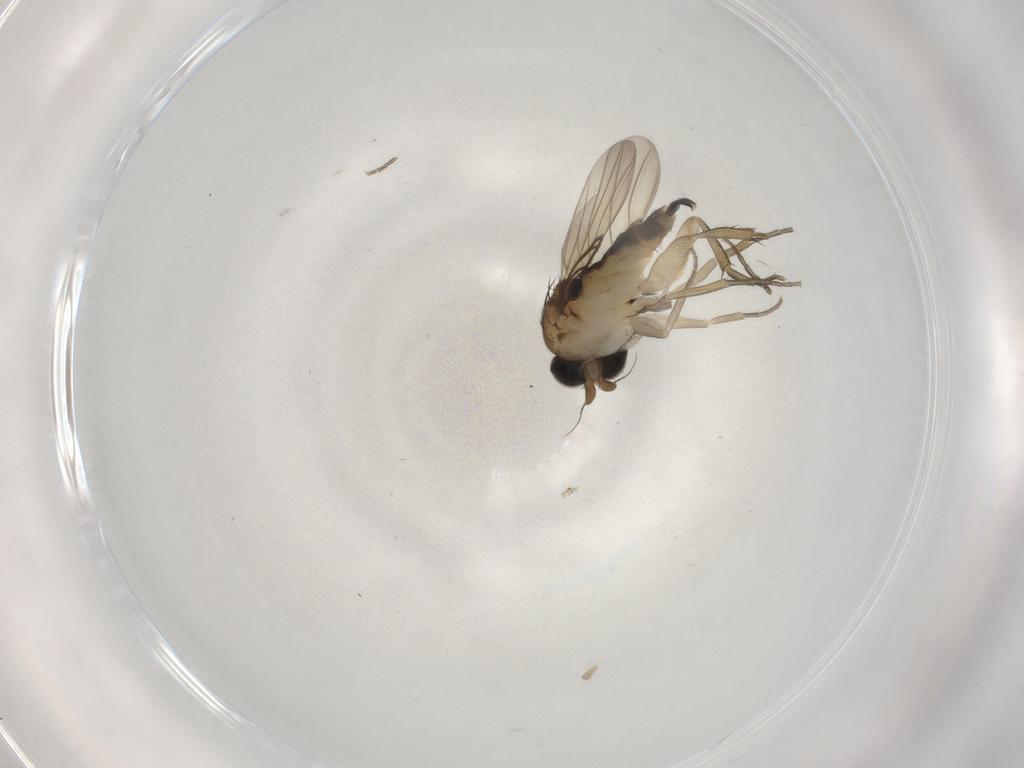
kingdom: Animalia
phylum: Arthropoda
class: Insecta
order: Diptera
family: Phoridae
